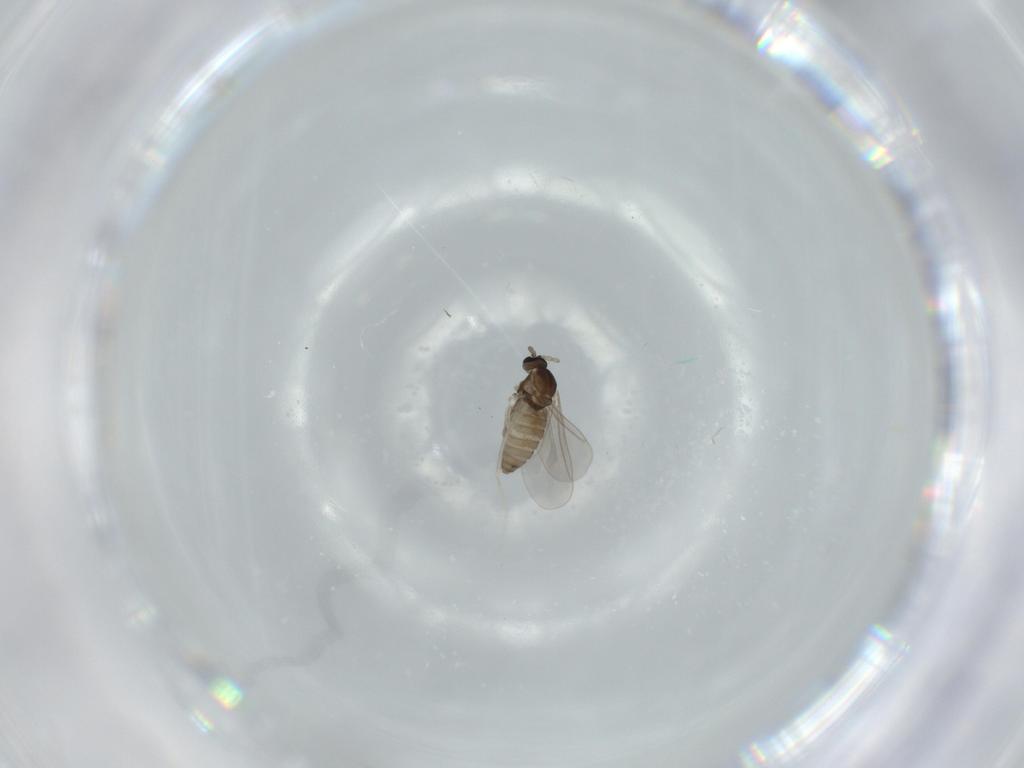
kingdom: Animalia
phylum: Arthropoda
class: Insecta
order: Diptera
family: Cecidomyiidae
